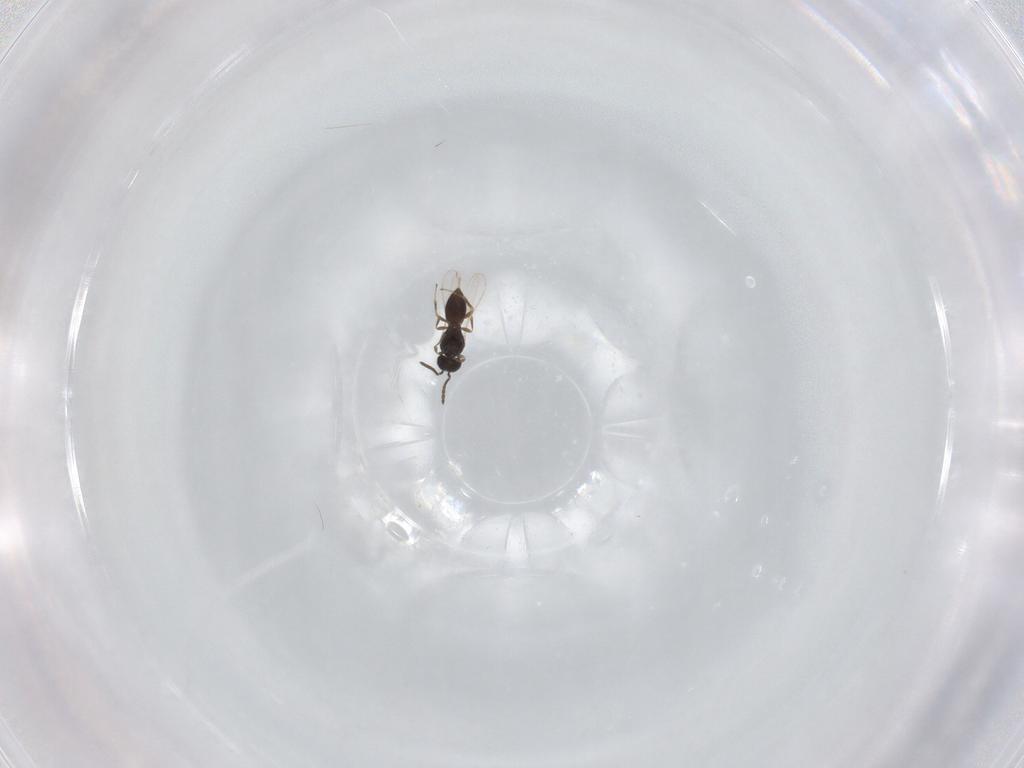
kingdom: Animalia
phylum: Arthropoda
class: Insecta
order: Hymenoptera
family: Scelionidae
